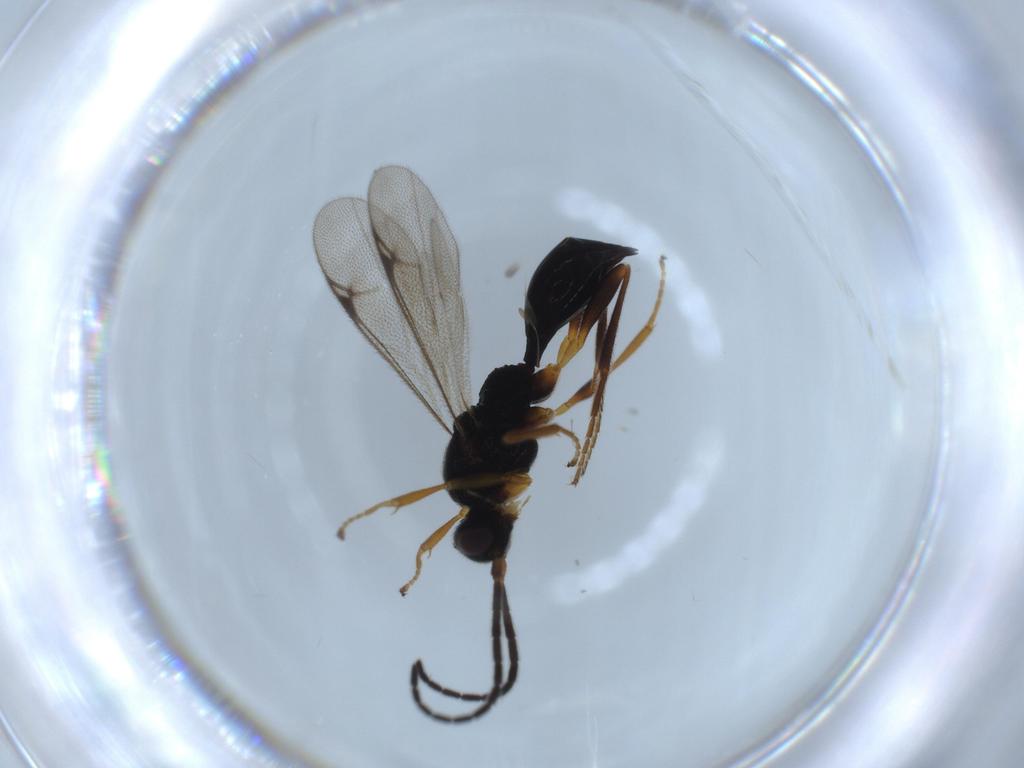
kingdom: Animalia
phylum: Arthropoda
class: Insecta
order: Hymenoptera
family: Proctotrupidae
